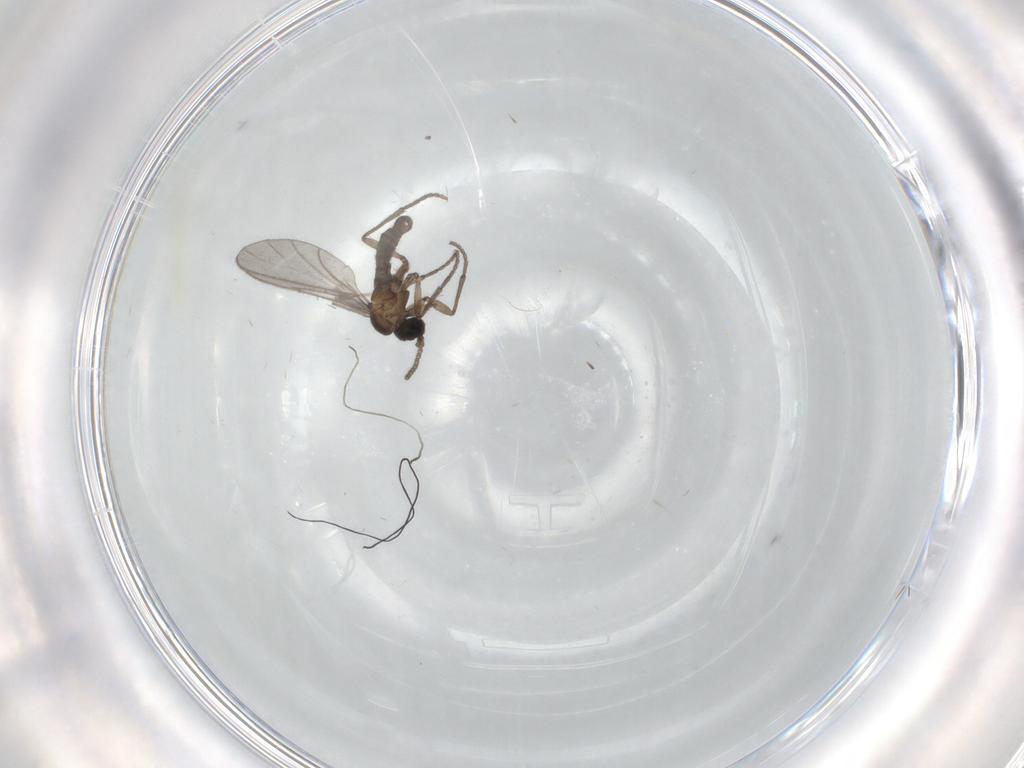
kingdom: Animalia
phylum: Arthropoda
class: Insecta
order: Diptera
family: Sciaridae
